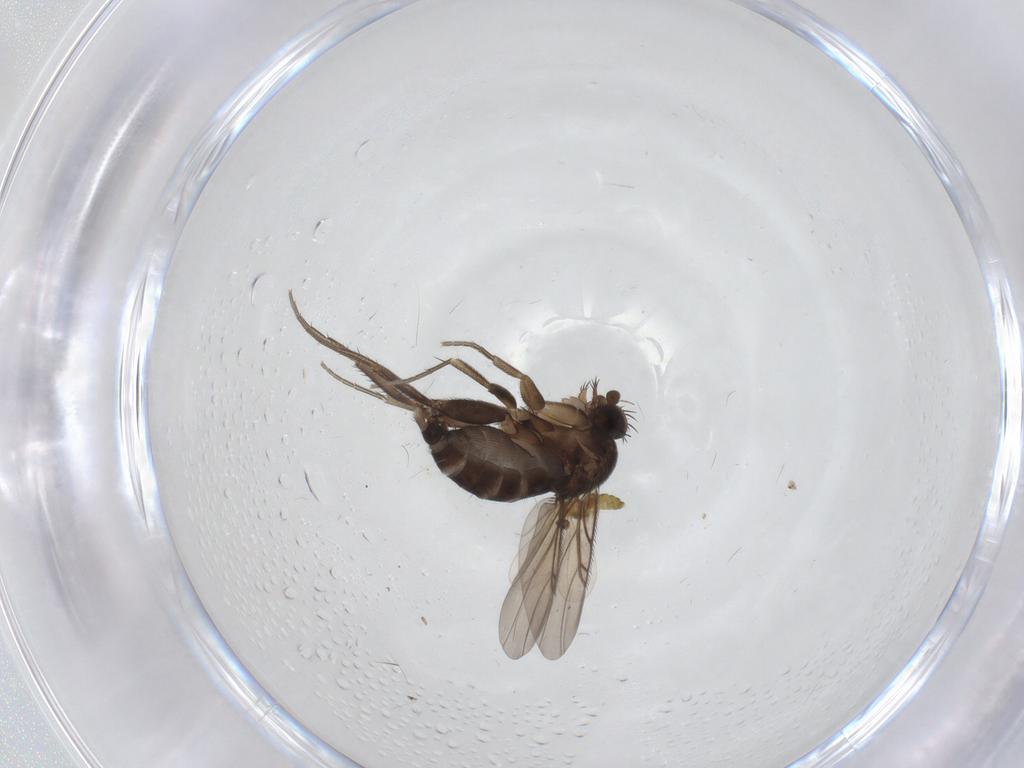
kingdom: Animalia
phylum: Arthropoda
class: Insecta
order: Diptera
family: Phoridae
